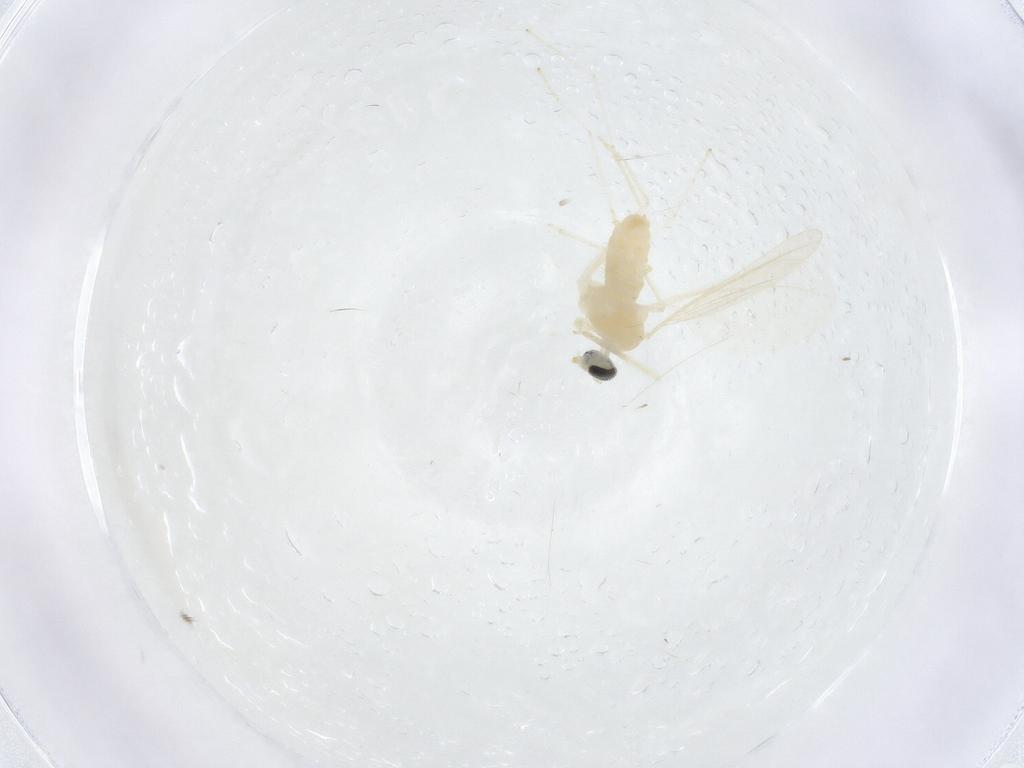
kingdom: Animalia
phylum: Arthropoda
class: Insecta
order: Diptera
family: Cecidomyiidae
